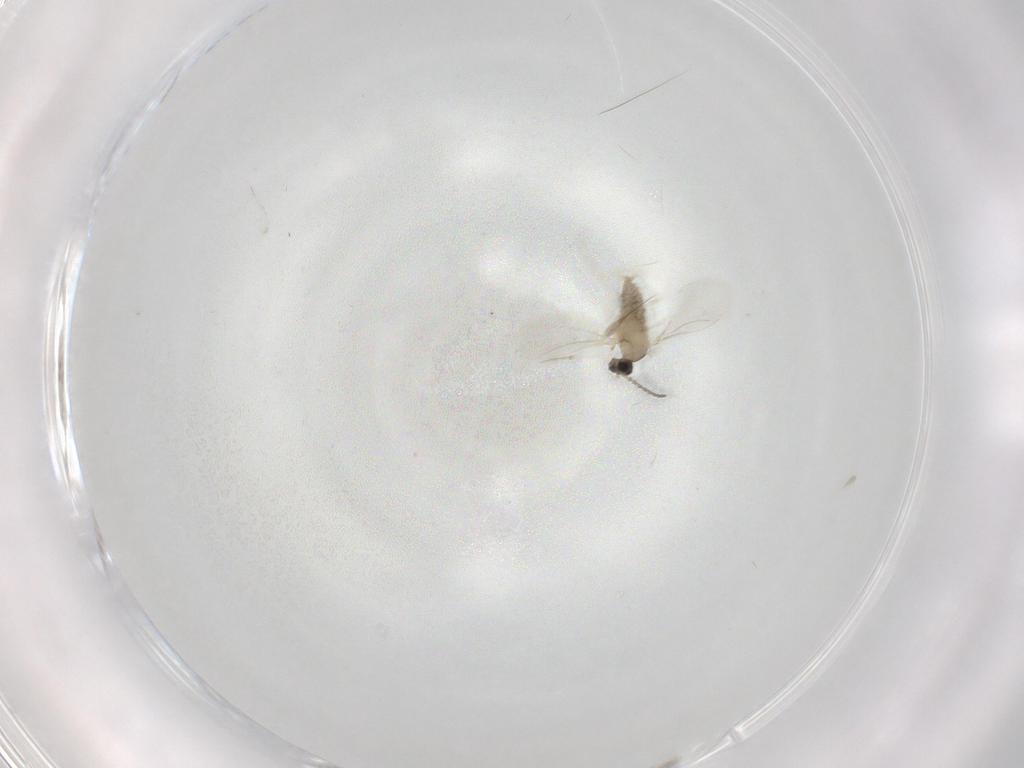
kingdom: Animalia
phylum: Arthropoda
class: Insecta
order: Diptera
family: Cecidomyiidae
